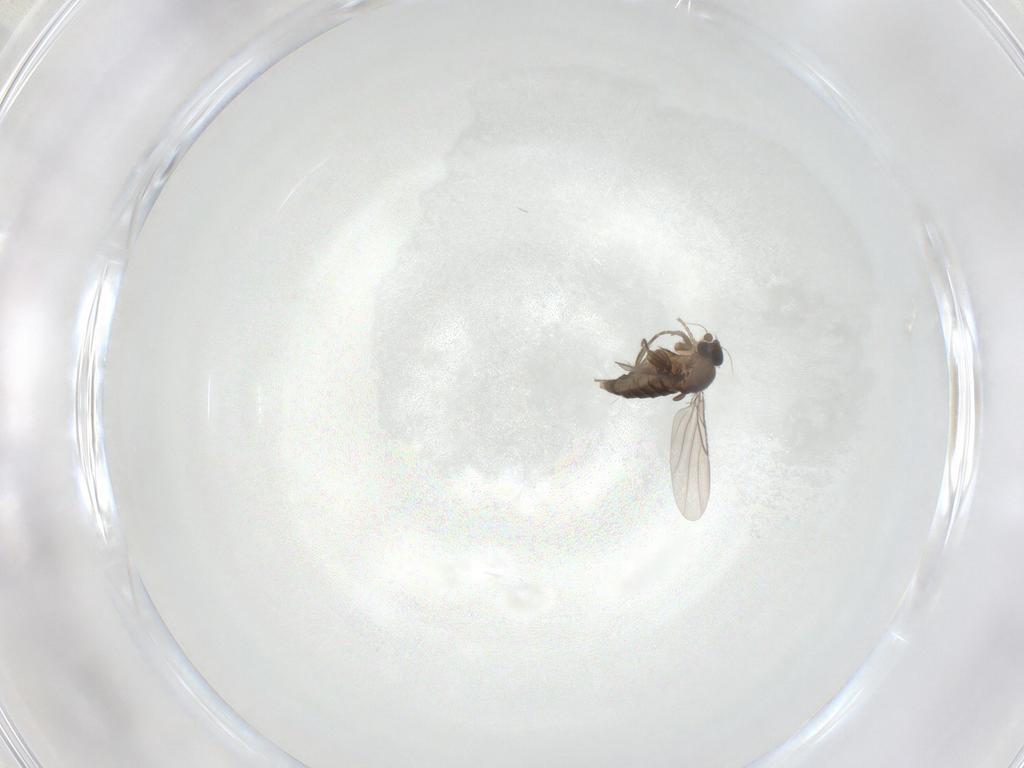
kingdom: Animalia
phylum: Arthropoda
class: Insecta
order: Diptera
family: Phoridae
